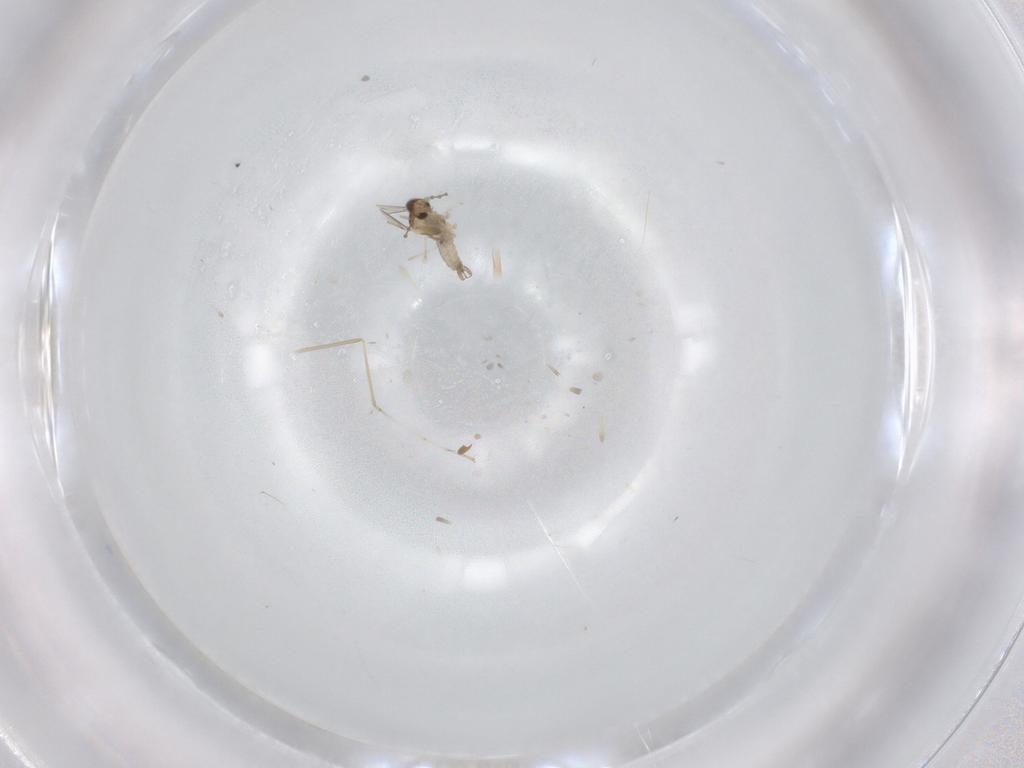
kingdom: Animalia
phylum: Arthropoda
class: Insecta
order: Diptera
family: Cecidomyiidae
